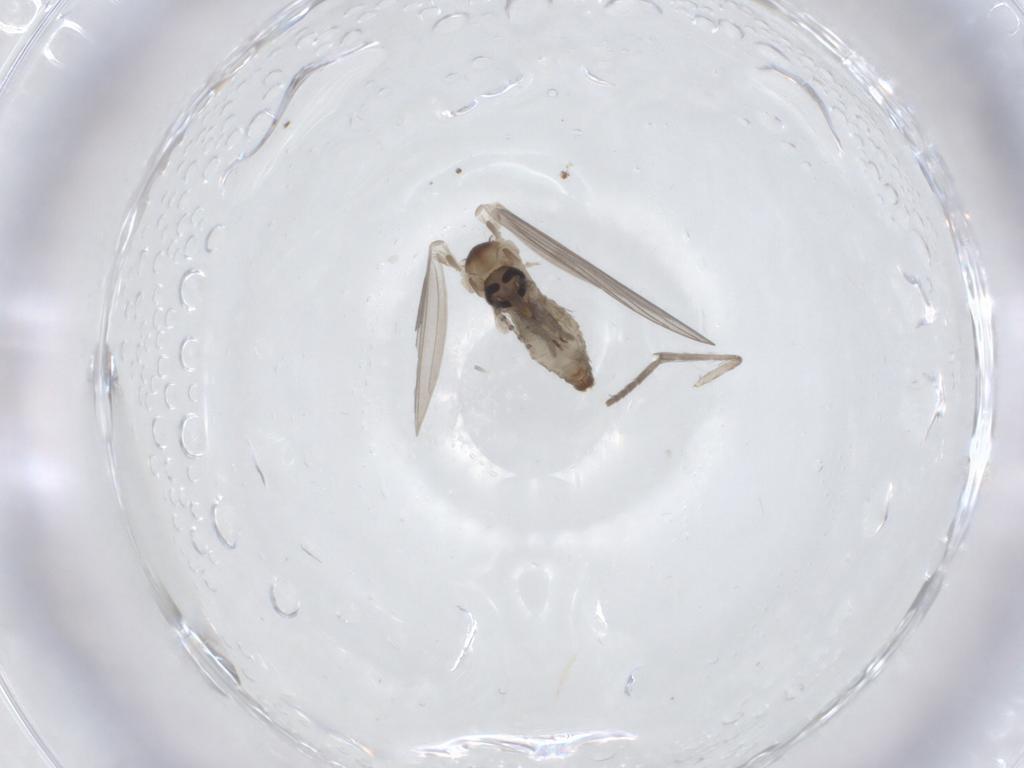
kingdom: Animalia
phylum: Arthropoda
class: Insecta
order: Diptera
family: Psychodidae
